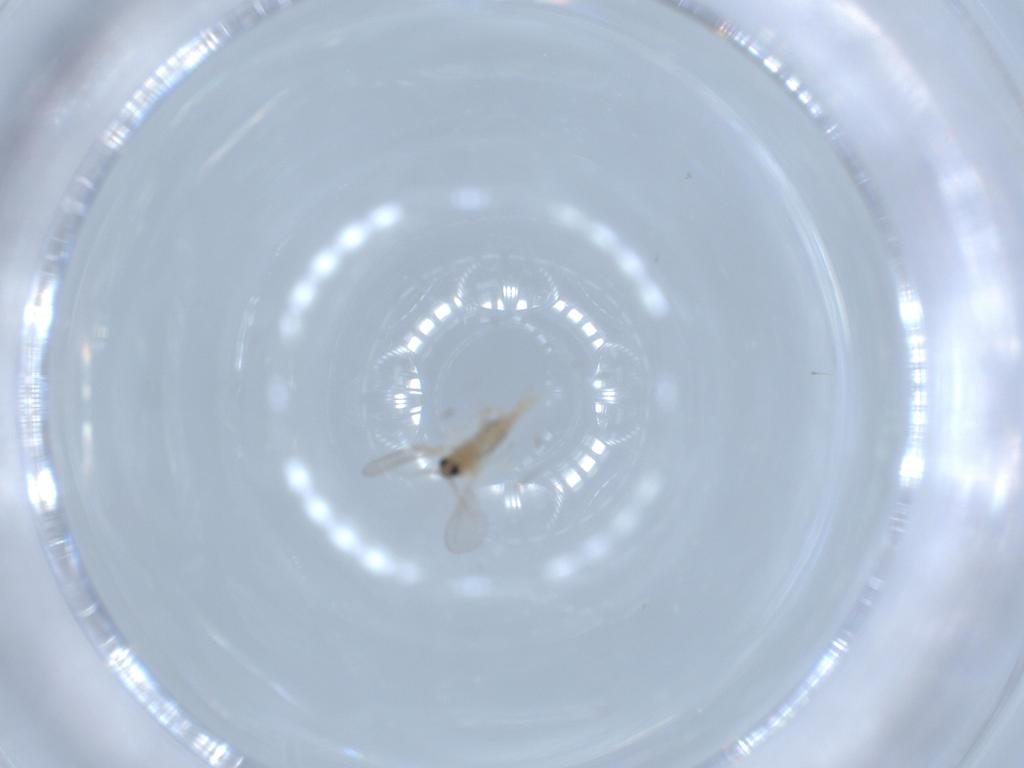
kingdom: Animalia
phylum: Arthropoda
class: Insecta
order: Diptera
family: Cecidomyiidae
